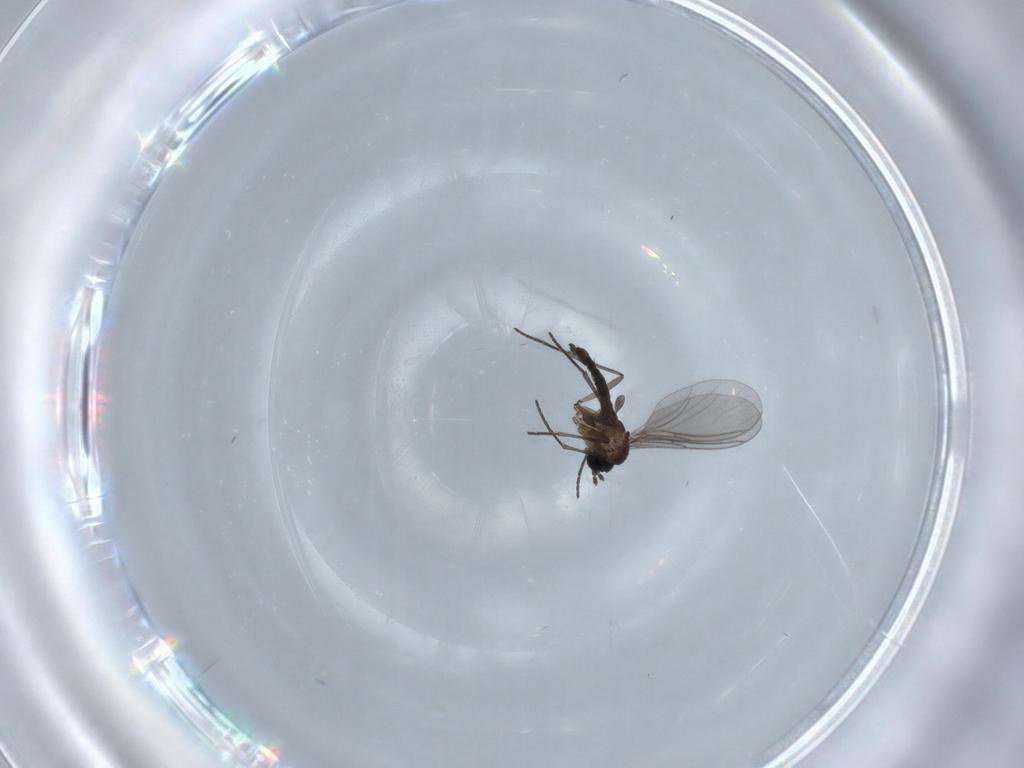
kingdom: Animalia
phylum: Arthropoda
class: Insecta
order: Diptera
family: Sciaridae
